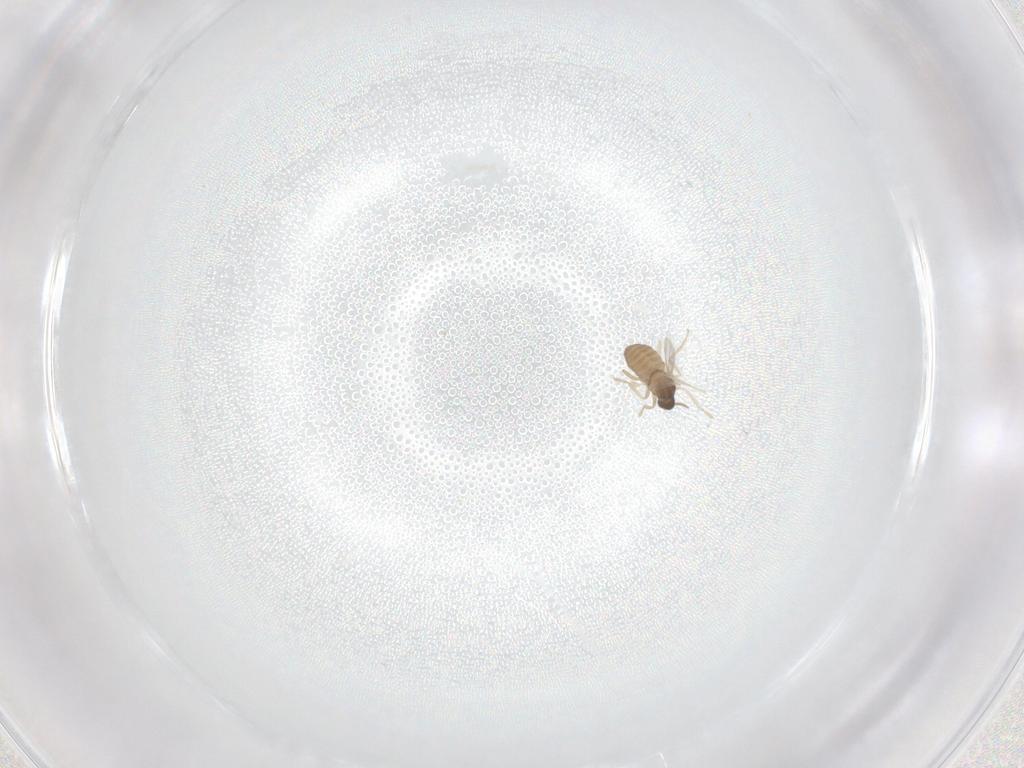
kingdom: Animalia
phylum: Arthropoda
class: Insecta
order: Diptera
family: Cecidomyiidae
